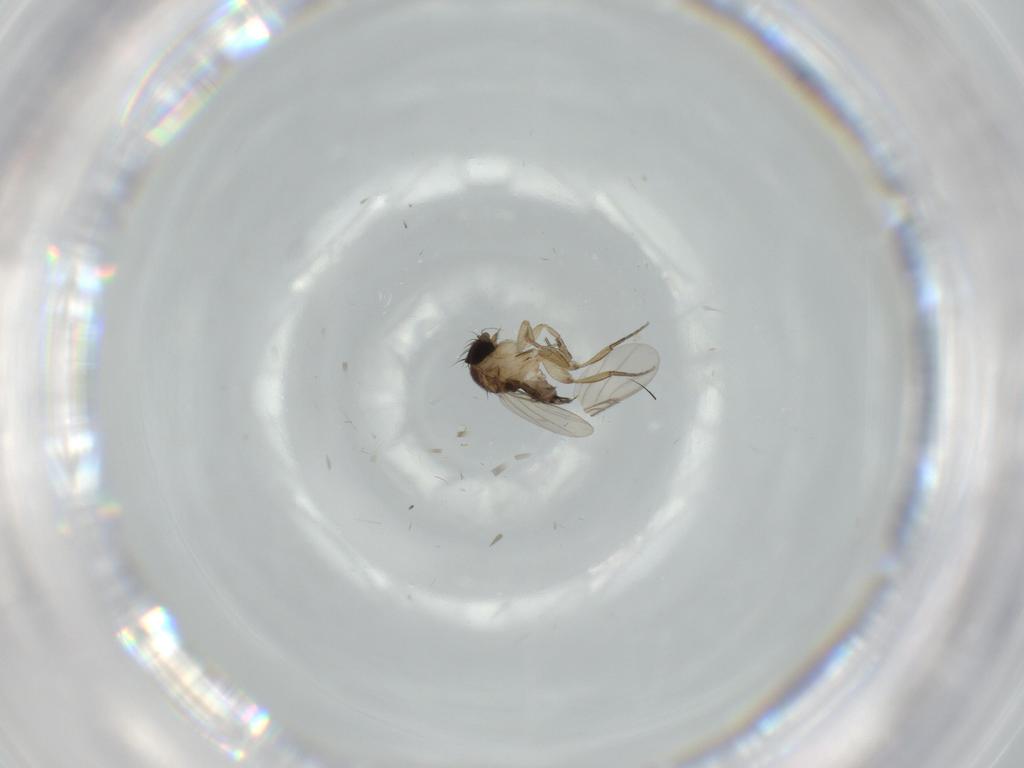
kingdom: Animalia
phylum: Arthropoda
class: Insecta
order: Diptera
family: Phoridae
